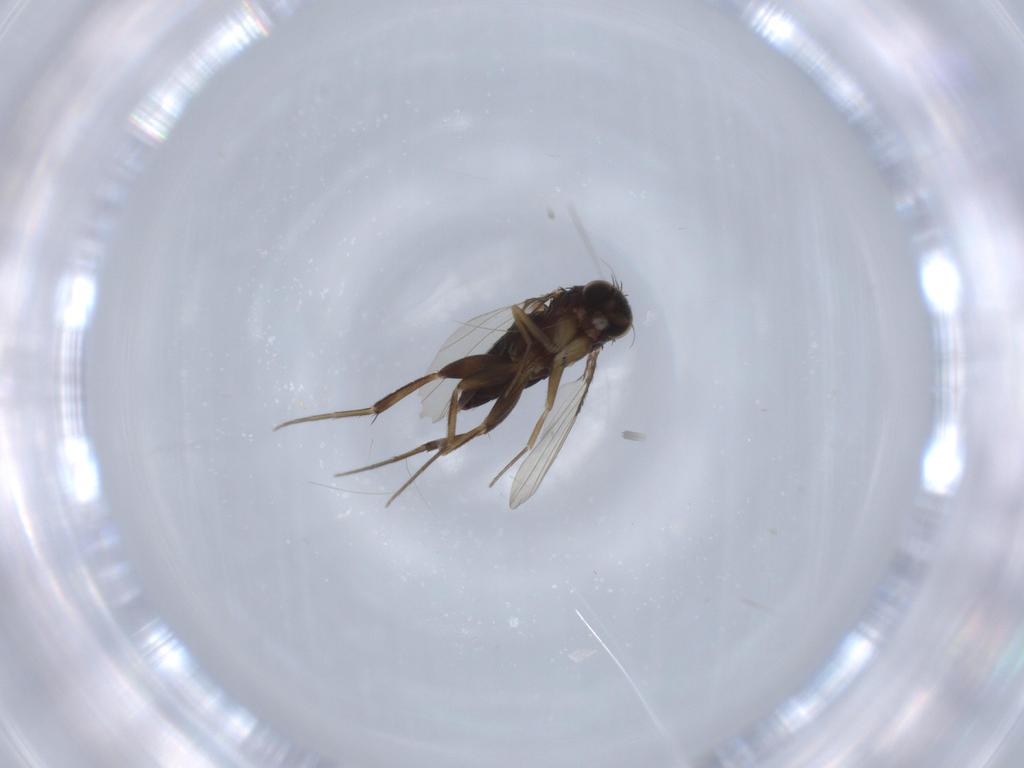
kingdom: Animalia
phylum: Arthropoda
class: Insecta
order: Diptera
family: Phoridae
